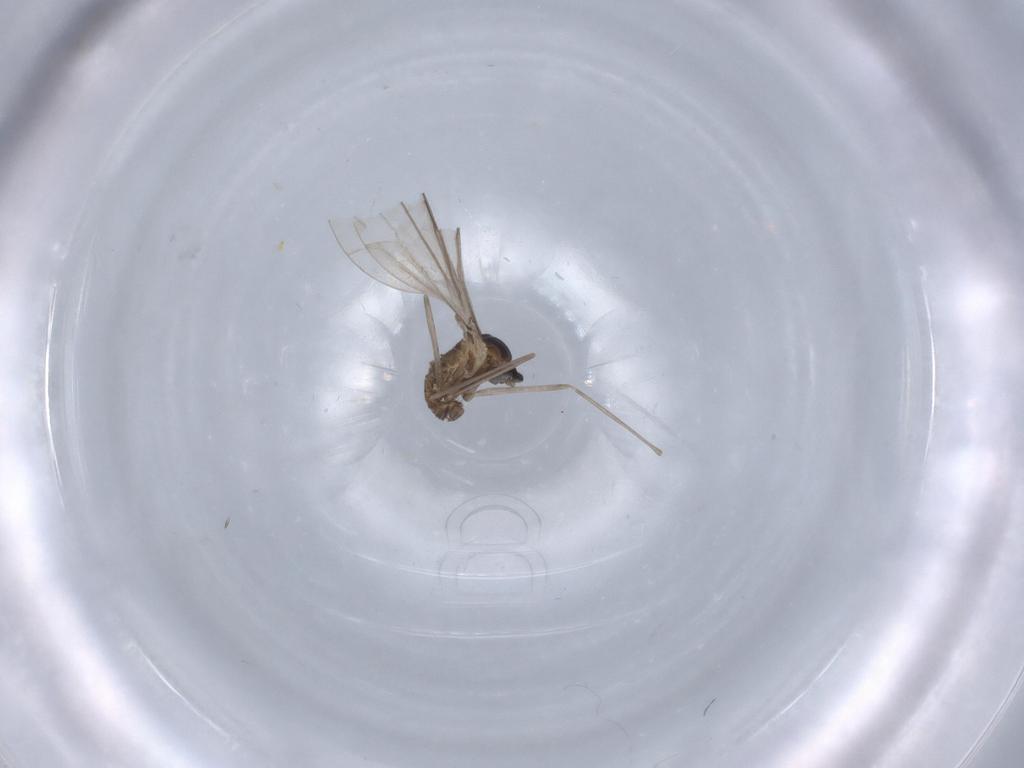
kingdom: Animalia
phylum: Arthropoda
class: Insecta
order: Diptera
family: Cecidomyiidae
